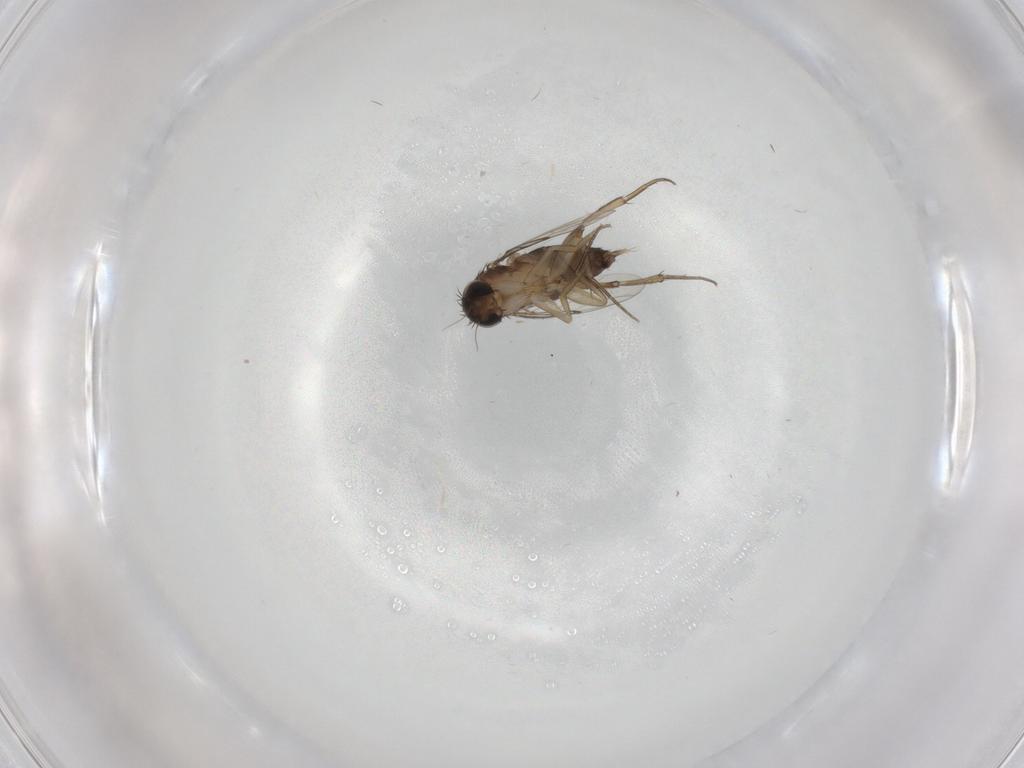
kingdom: Animalia
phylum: Arthropoda
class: Insecta
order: Diptera
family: Phoridae
